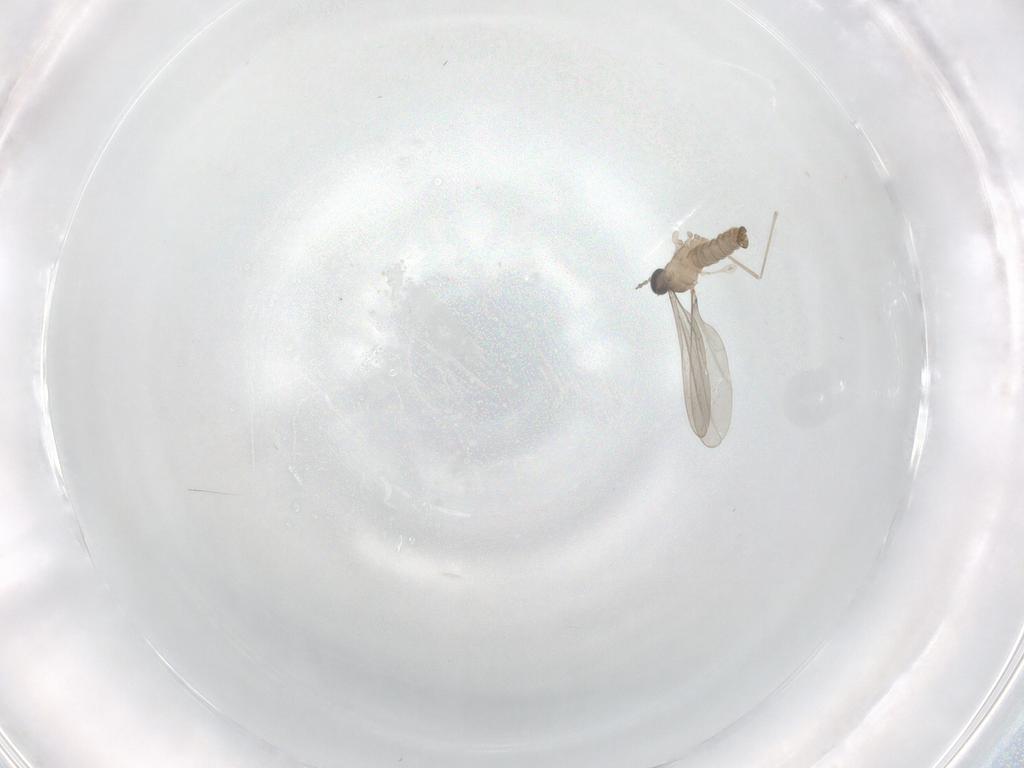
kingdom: Animalia
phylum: Arthropoda
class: Insecta
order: Diptera
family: Cecidomyiidae
